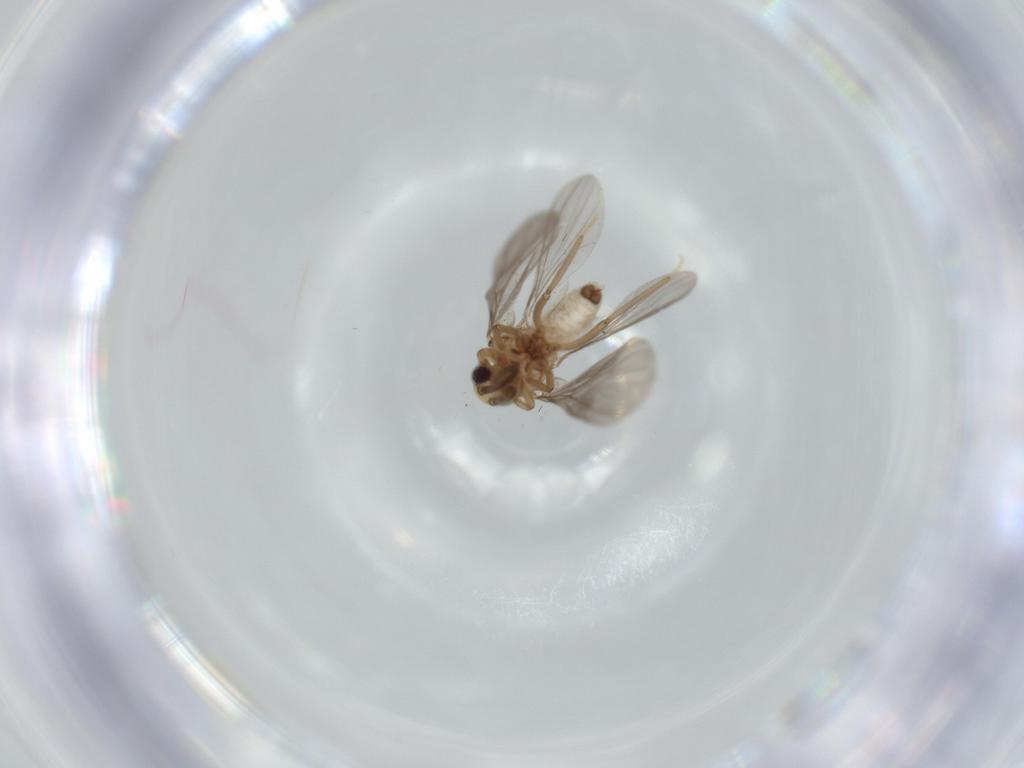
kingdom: Animalia
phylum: Arthropoda
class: Insecta
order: Neuroptera
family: Coniopterygidae
